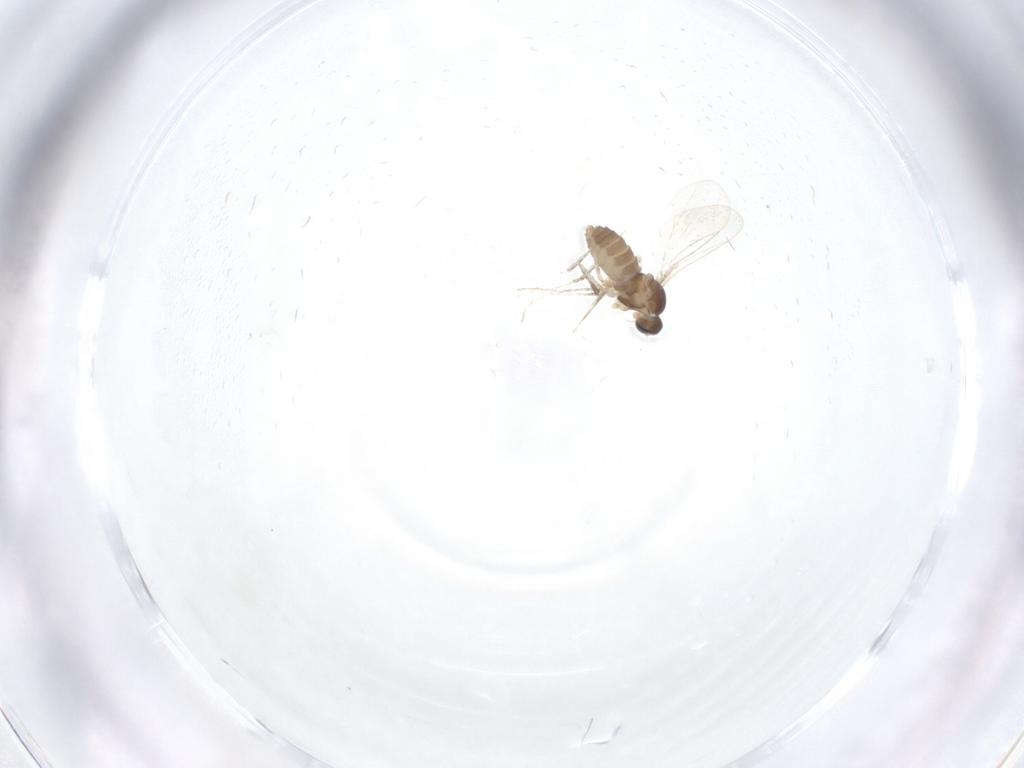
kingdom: Animalia
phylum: Arthropoda
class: Insecta
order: Diptera
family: Cecidomyiidae
